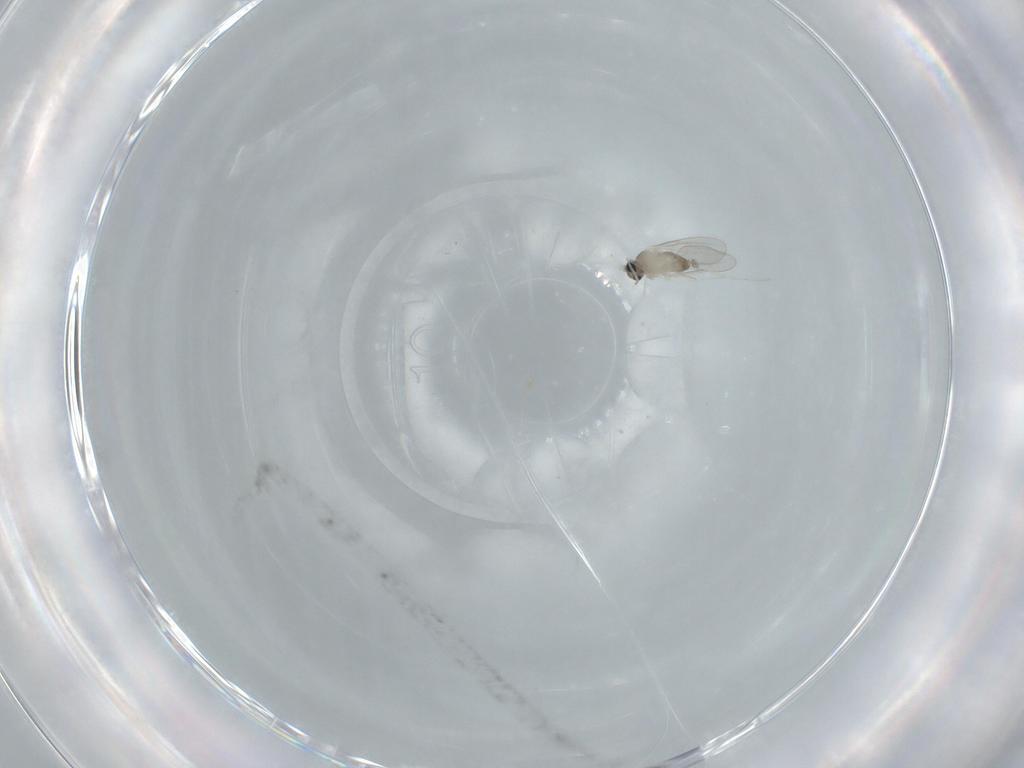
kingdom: Animalia
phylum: Arthropoda
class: Insecta
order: Diptera
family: Cecidomyiidae
